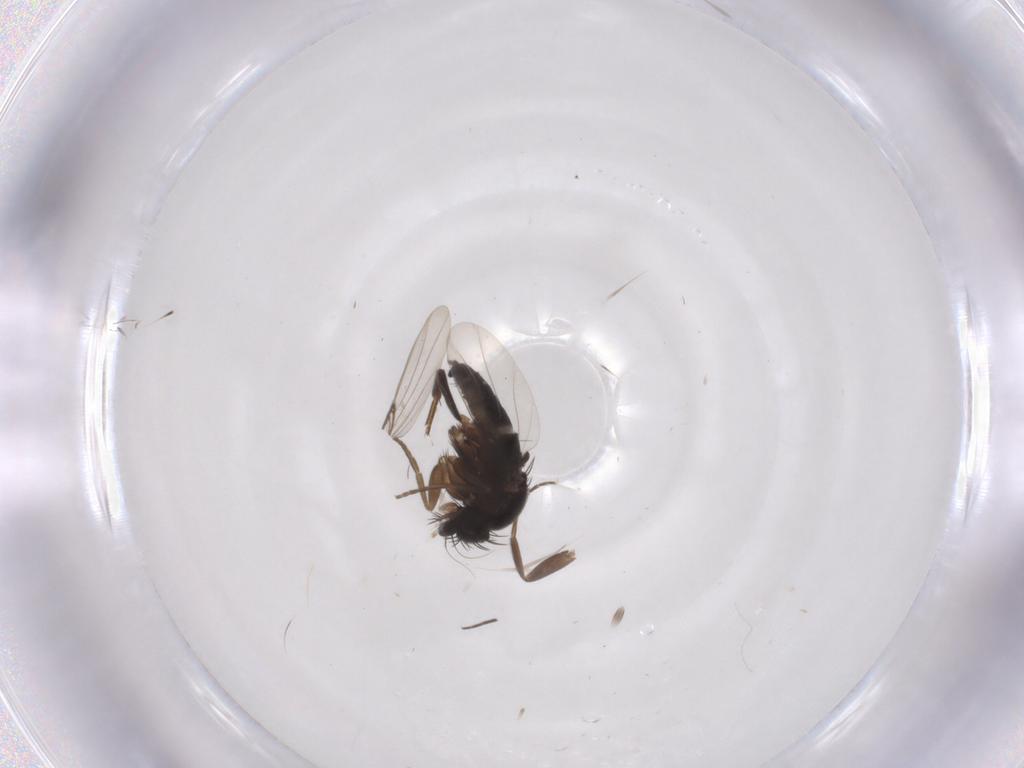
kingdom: Animalia
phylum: Arthropoda
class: Insecta
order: Diptera
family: Phoridae
